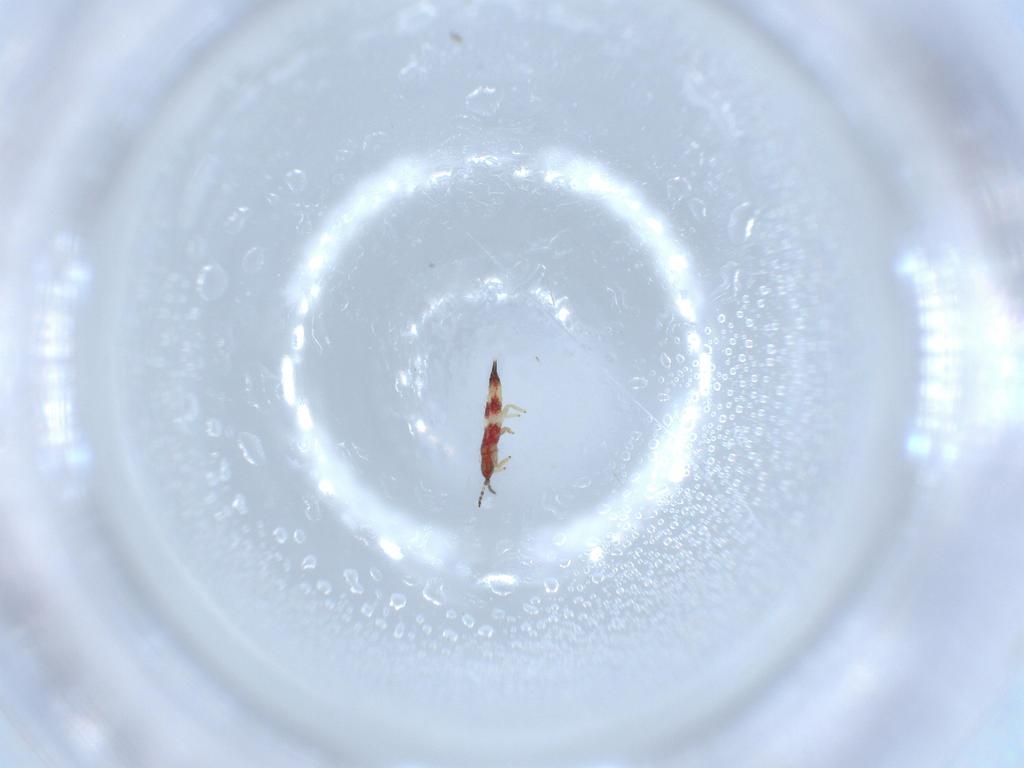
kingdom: Animalia
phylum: Arthropoda
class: Insecta
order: Thysanoptera
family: Phlaeothripidae
